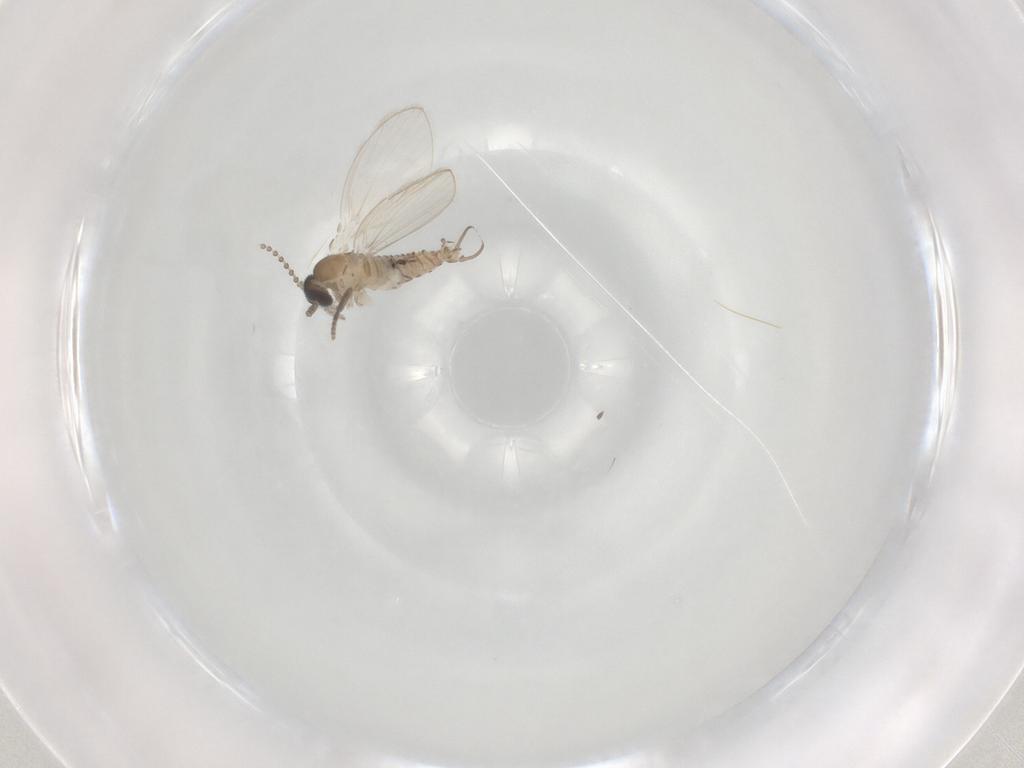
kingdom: Animalia
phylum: Arthropoda
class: Insecta
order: Diptera
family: Psychodidae
